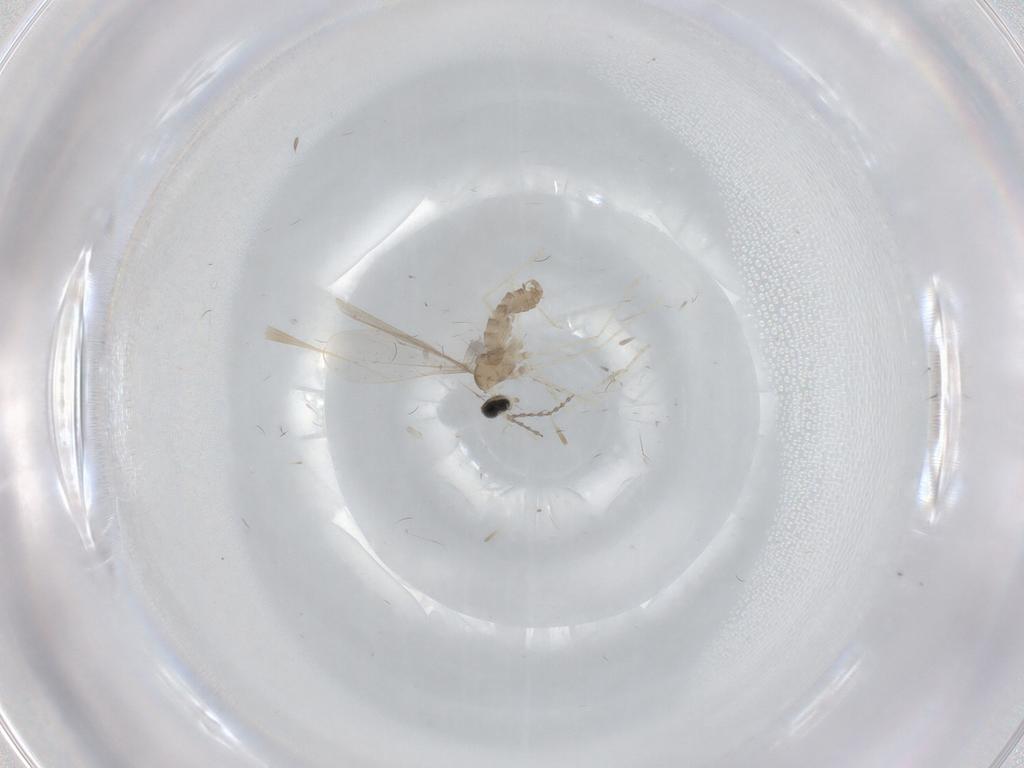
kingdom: Animalia
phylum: Arthropoda
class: Insecta
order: Diptera
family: Cecidomyiidae
